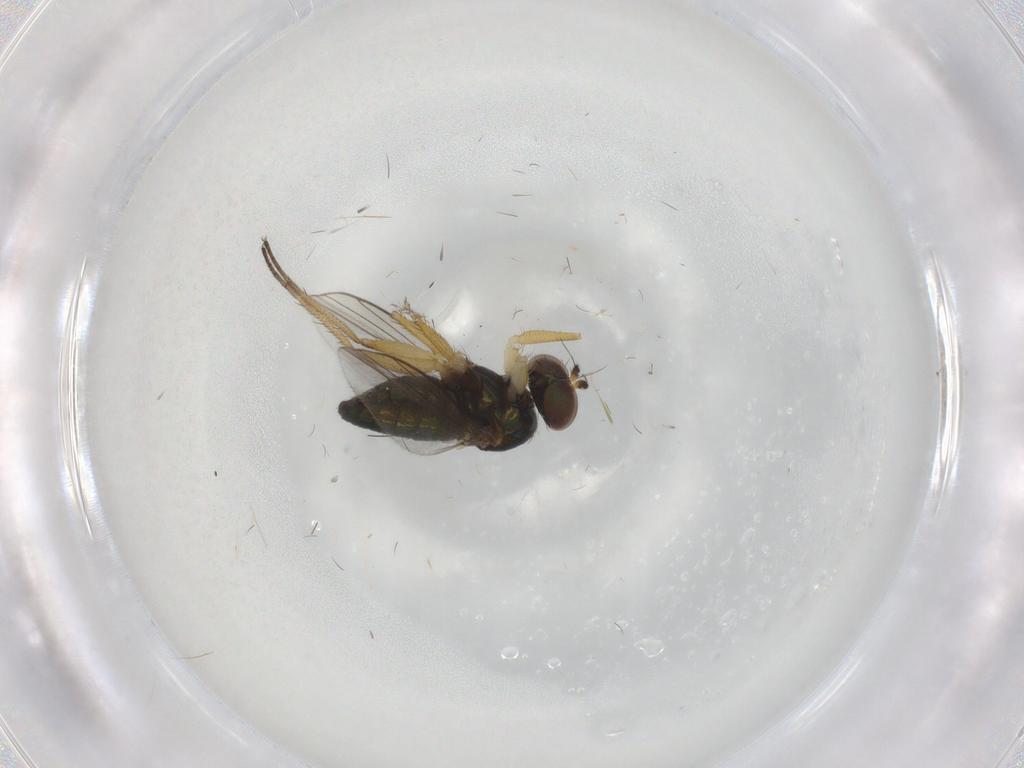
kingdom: Animalia
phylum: Arthropoda
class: Insecta
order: Diptera
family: Dolichopodidae
